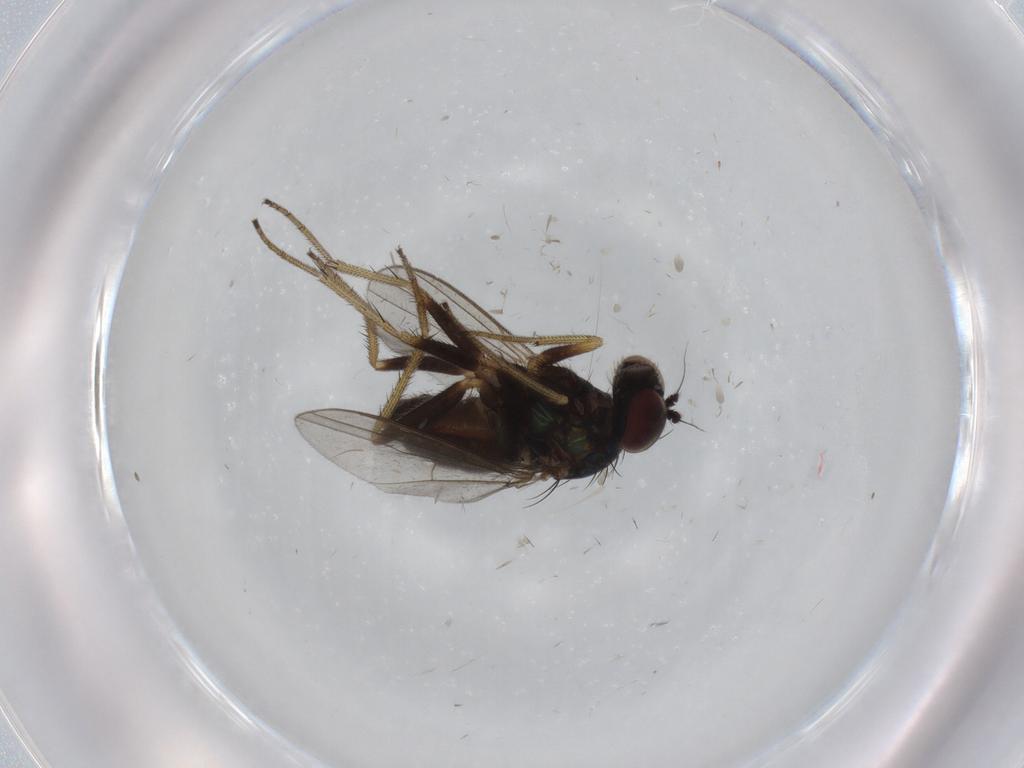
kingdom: Animalia
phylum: Arthropoda
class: Insecta
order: Diptera
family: Dolichopodidae
